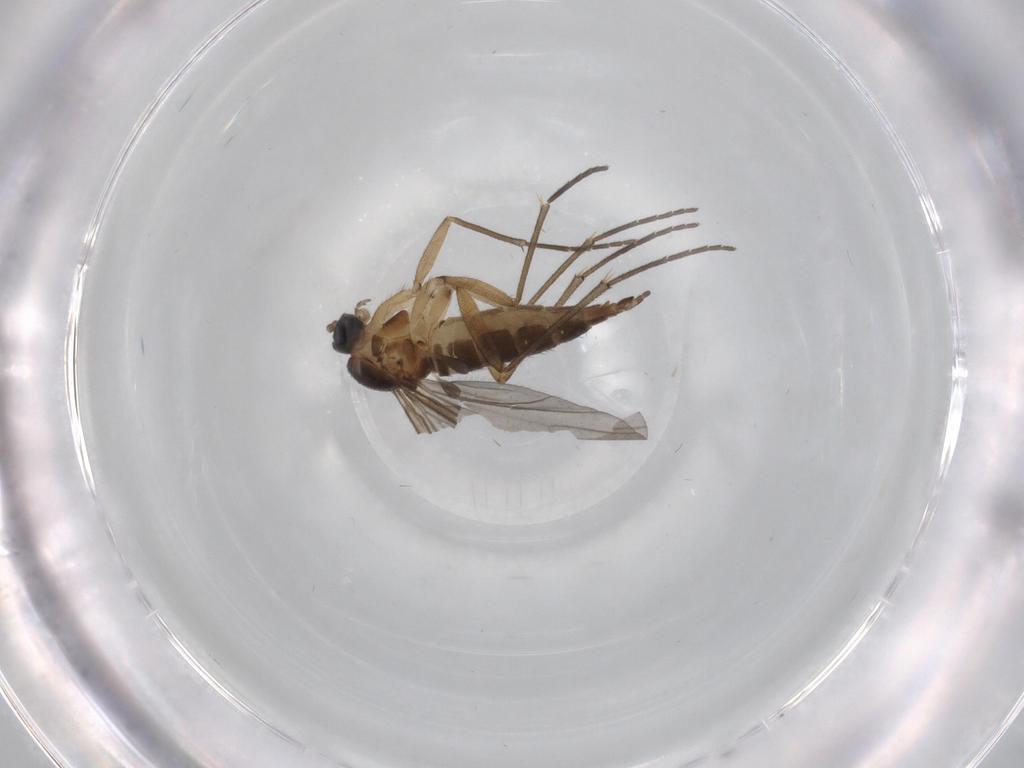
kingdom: Animalia
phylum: Arthropoda
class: Insecta
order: Diptera
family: Sciaridae
